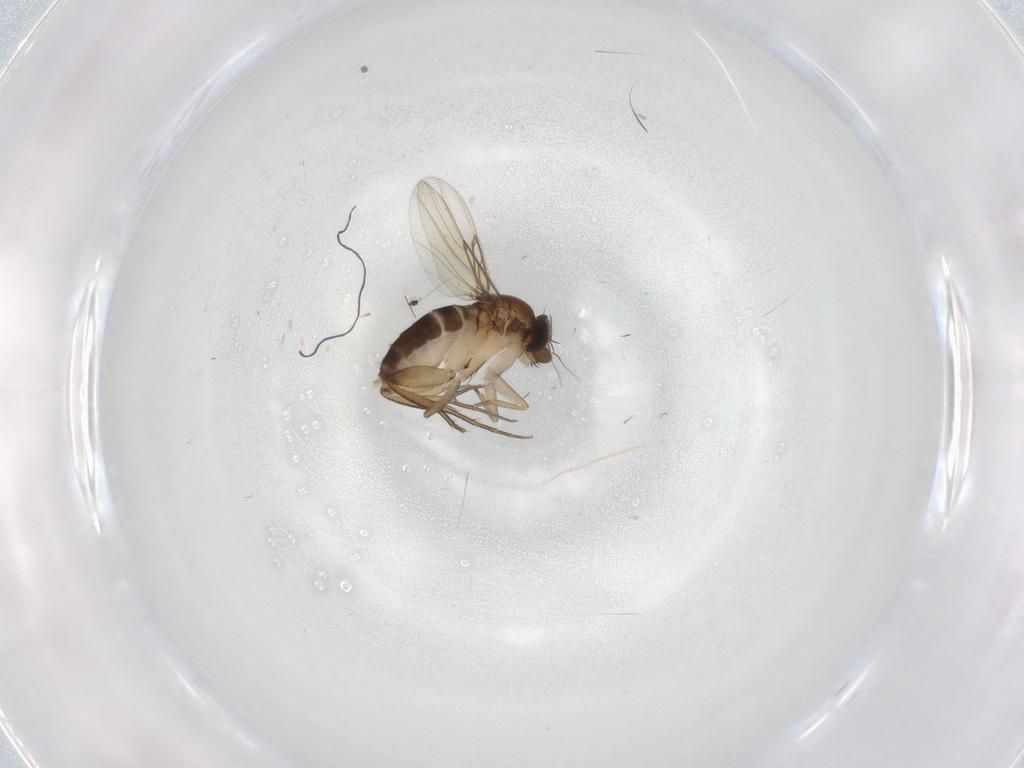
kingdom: Animalia
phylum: Arthropoda
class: Insecta
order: Diptera
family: Phoridae
